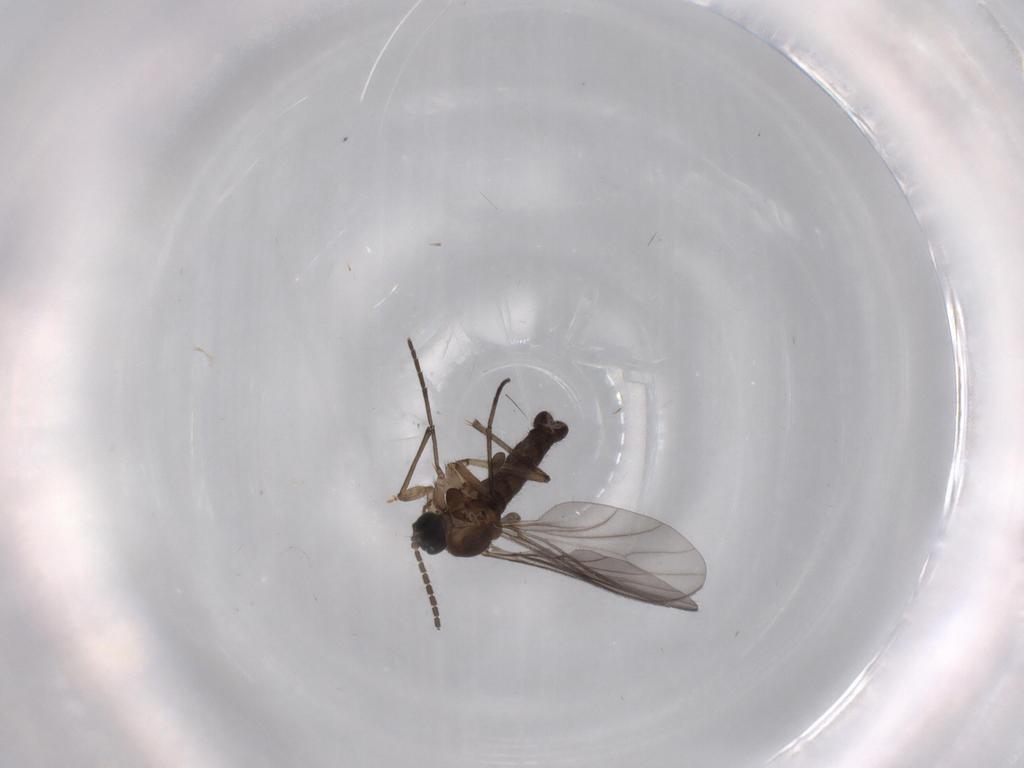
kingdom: Animalia
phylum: Arthropoda
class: Insecta
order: Diptera
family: Sciaridae
